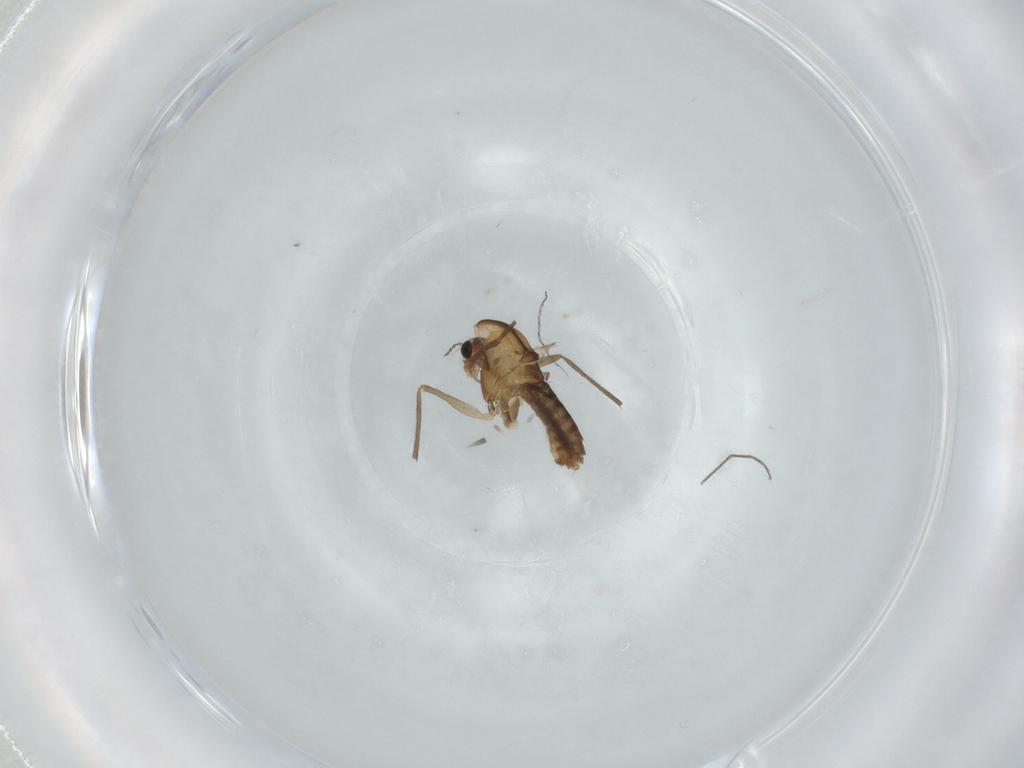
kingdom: Animalia
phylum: Arthropoda
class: Insecta
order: Diptera
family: Chironomidae
